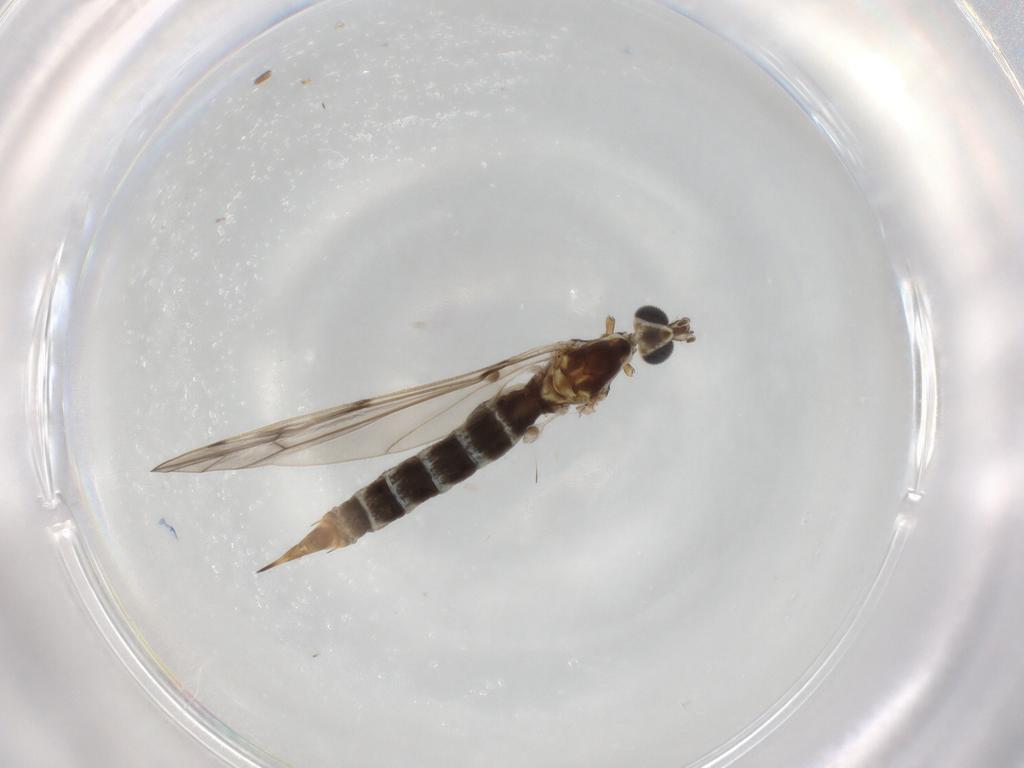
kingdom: Animalia
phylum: Arthropoda
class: Insecta
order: Diptera
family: Limoniidae
